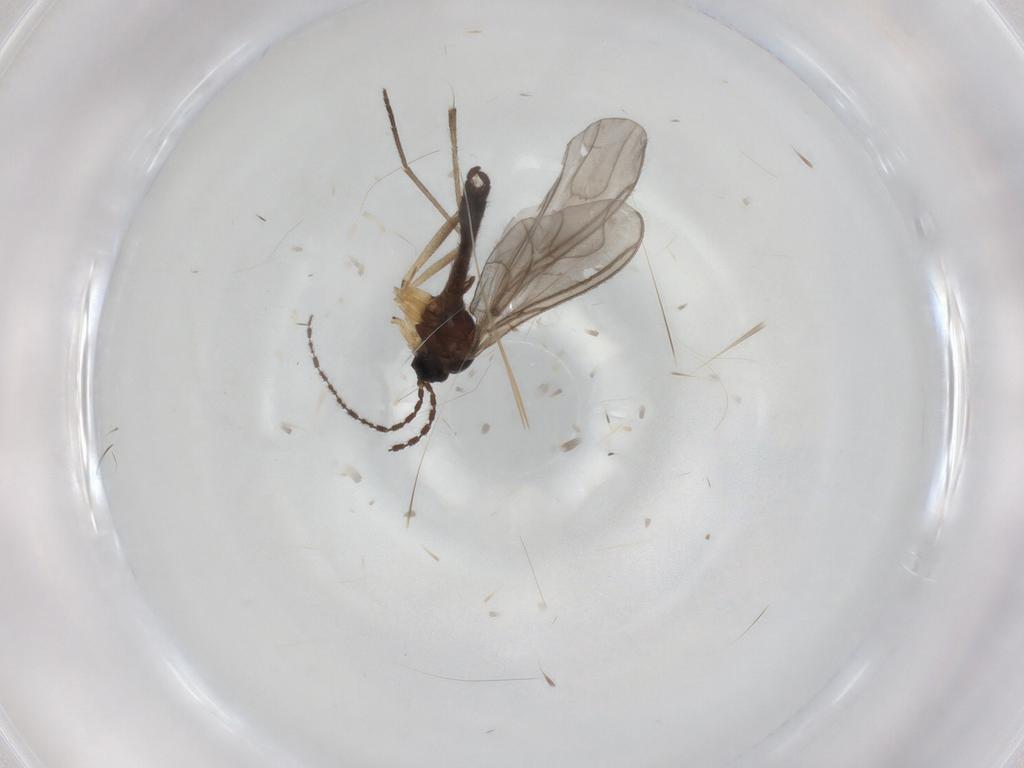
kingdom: Animalia
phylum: Arthropoda
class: Insecta
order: Diptera
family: Sciaridae
